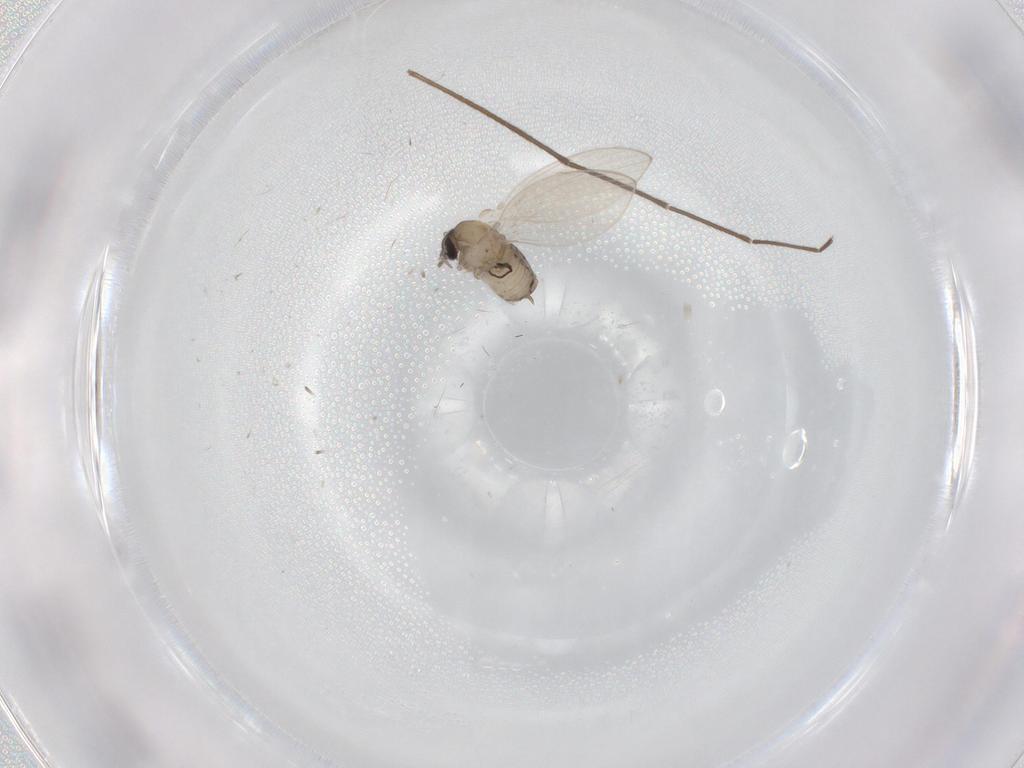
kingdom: Animalia
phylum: Arthropoda
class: Insecta
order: Diptera
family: Psychodidae
